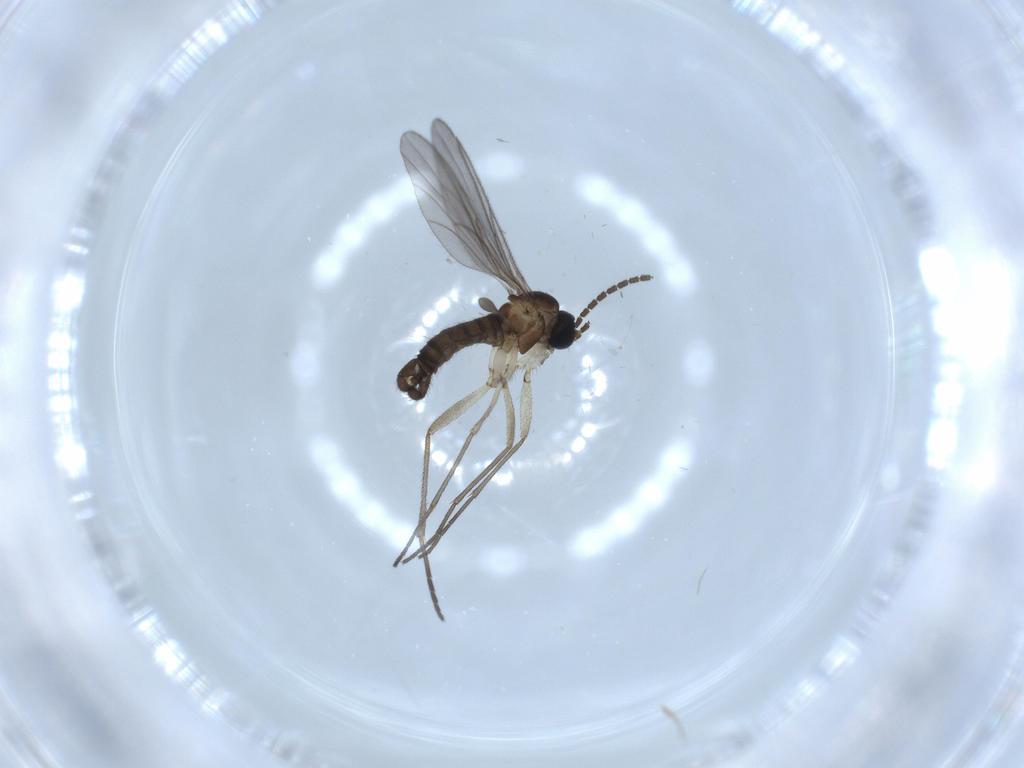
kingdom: Animalia
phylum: Arthropoda
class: Insecta
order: Diptera
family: Sciaridae
